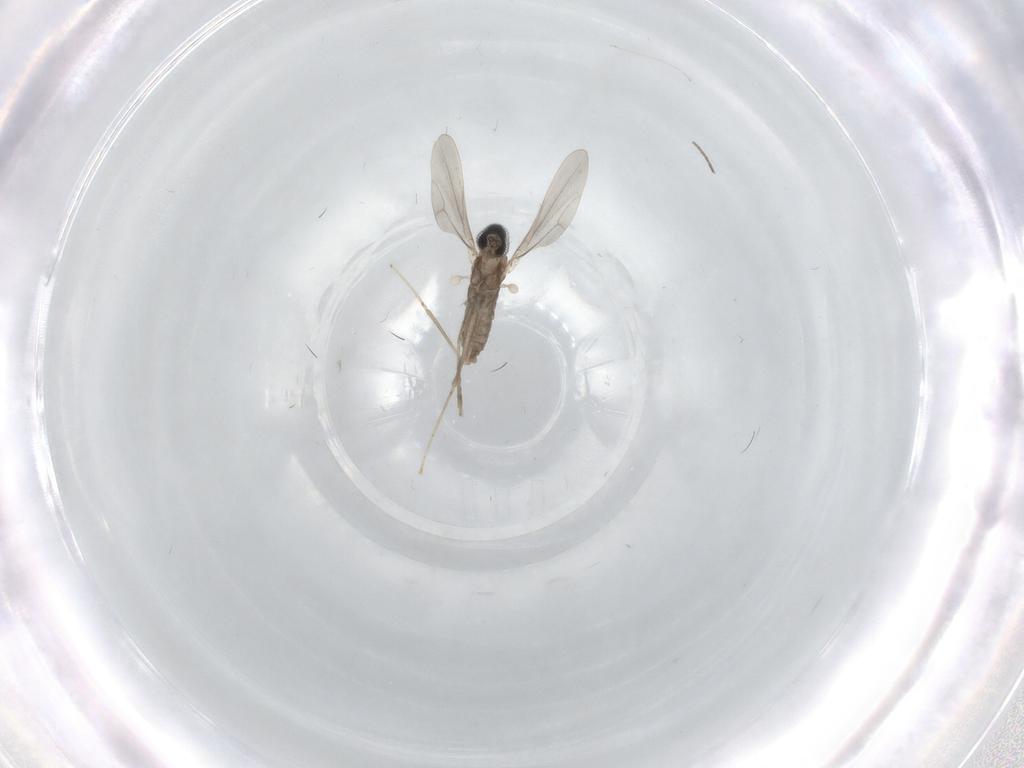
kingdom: Animalia
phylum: Arthropoda
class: Insecta
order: Diptera
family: Cecidomyiidae
